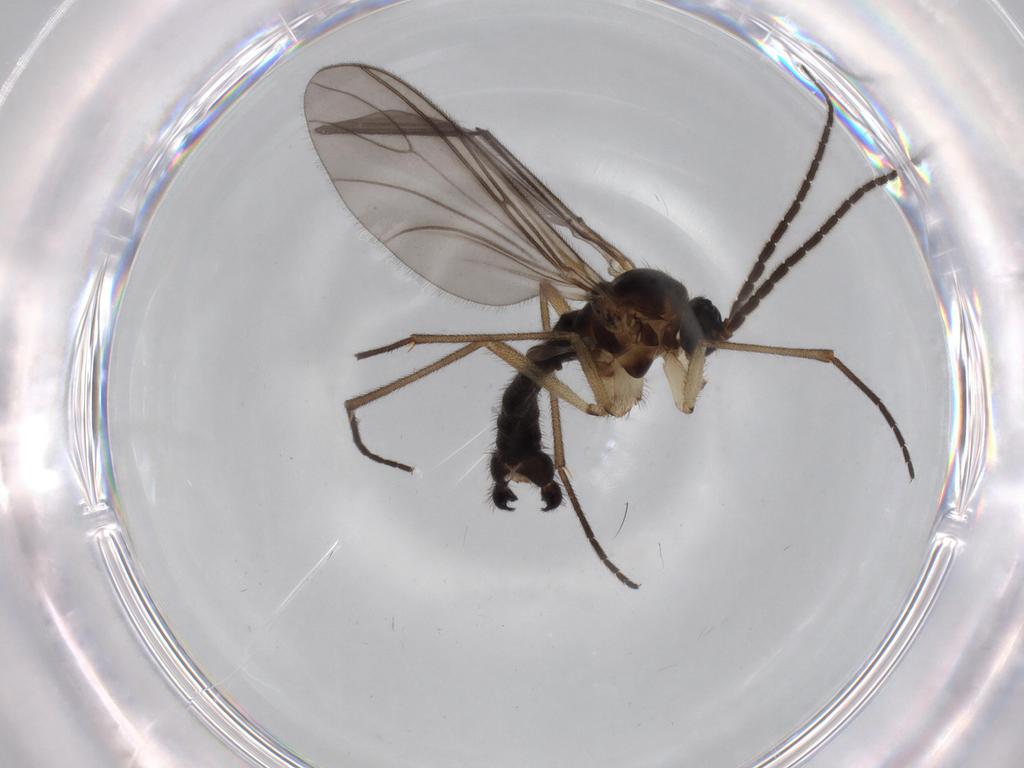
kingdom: Animalia
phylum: Arthropoda
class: Insecta
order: Diptera
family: Sciaridae
